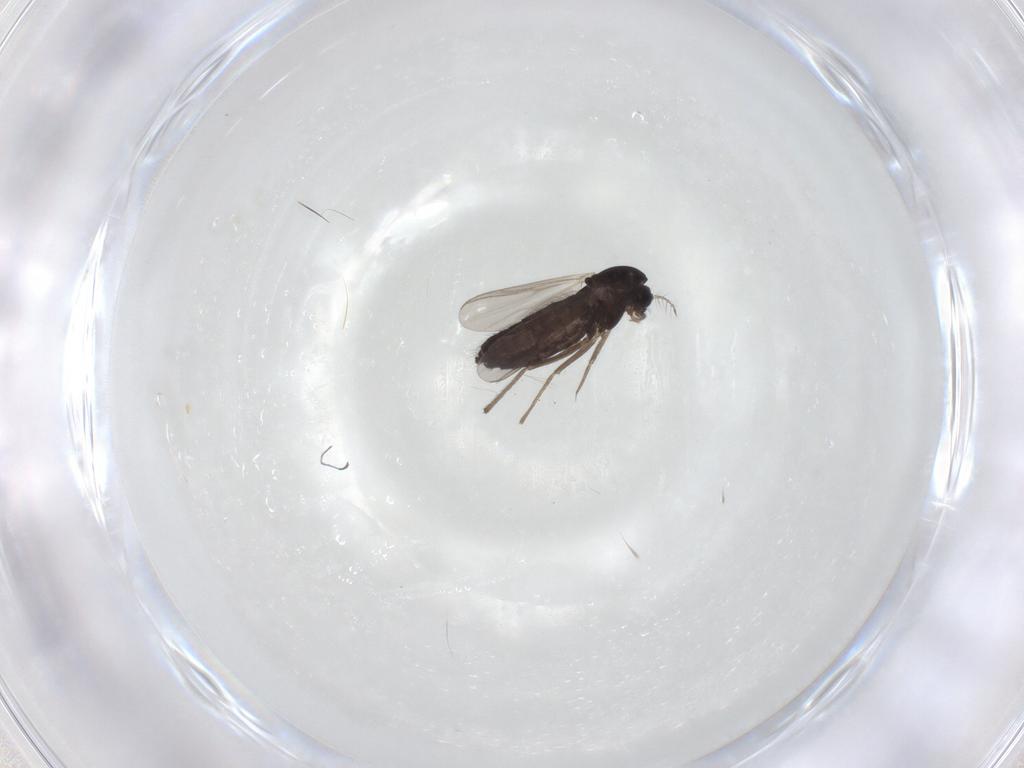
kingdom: Animalia
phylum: Arthropoda
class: Insecta
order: Diptera
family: Chironomidae
